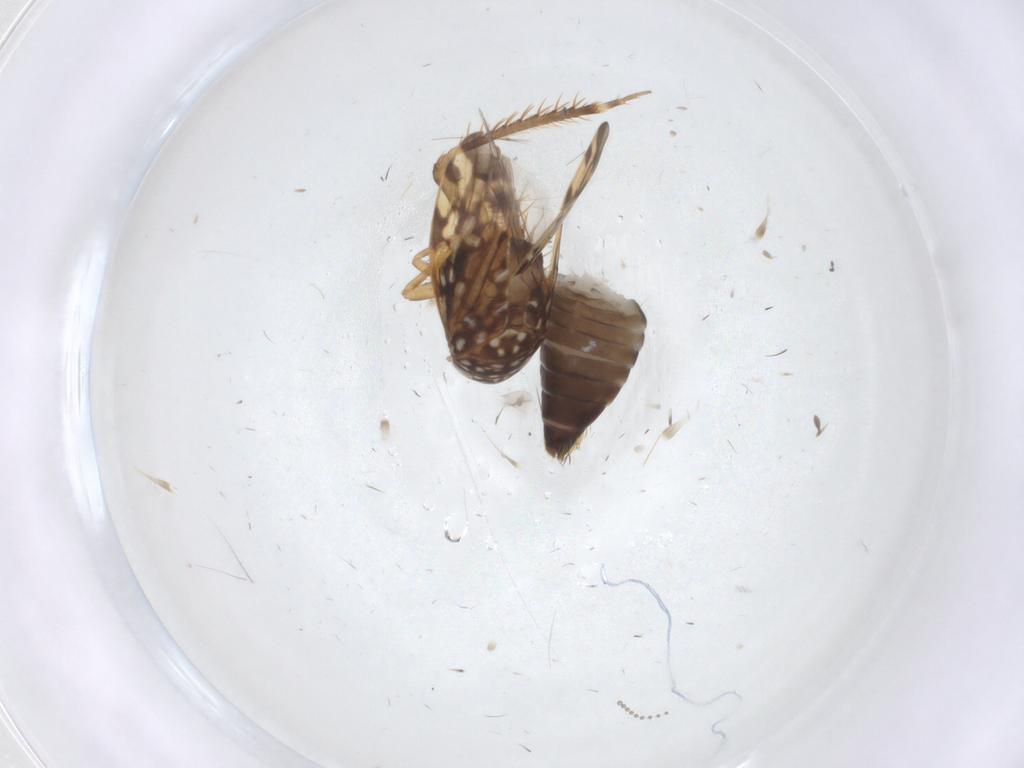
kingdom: Animalia
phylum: Arthropoda
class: Insecta
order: Hemiptera
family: Cicadellidae
